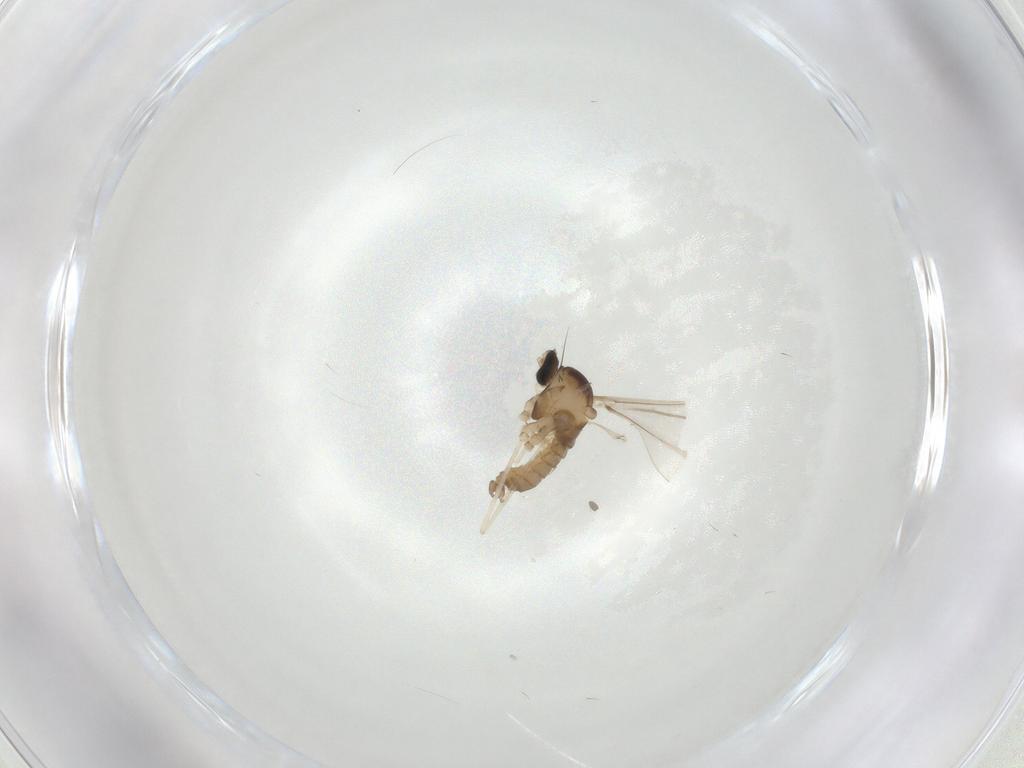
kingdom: Animalia
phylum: Arthropoda
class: Insecta
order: Diptera
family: Cecidomyiidae
